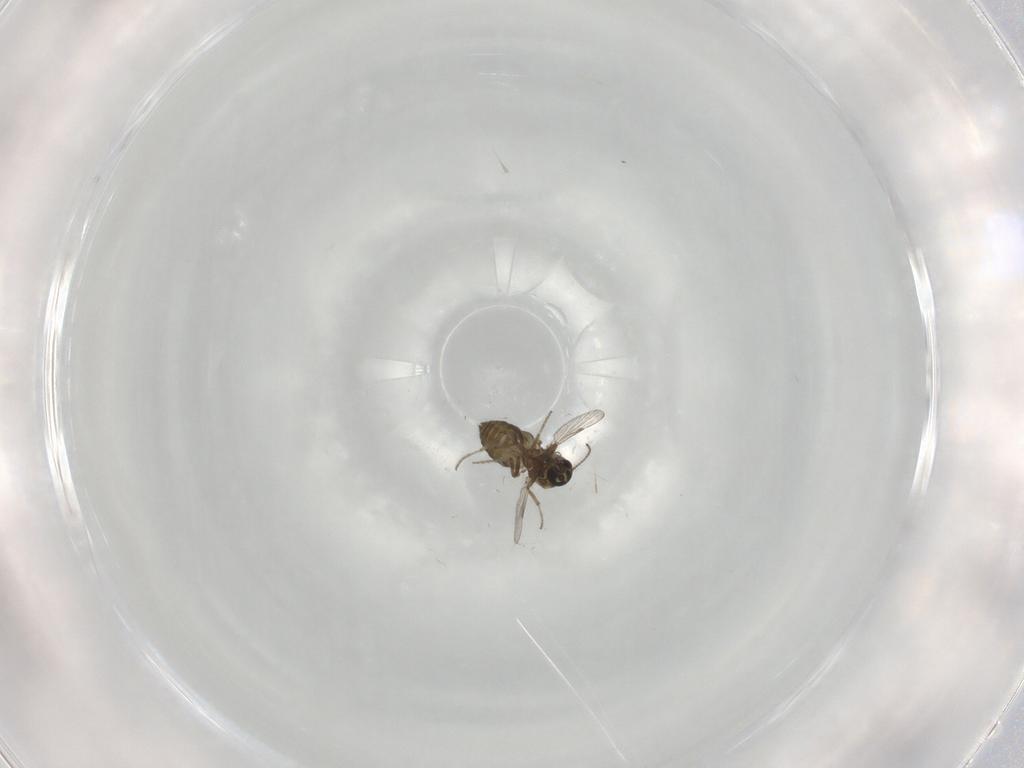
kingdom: Animalia
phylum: Arthropoda
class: Insecta
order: Diptera
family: Ceratopogonidae
